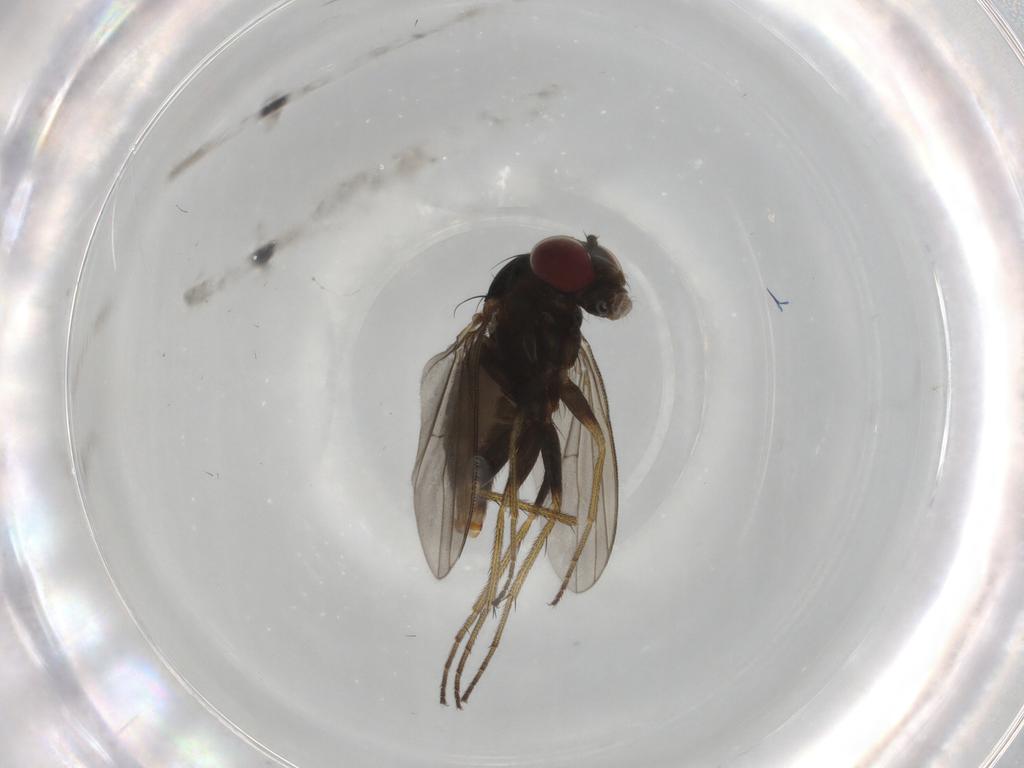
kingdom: Animalia
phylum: Arthropoda
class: Insecta
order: Diptera
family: Dolichopodidae
